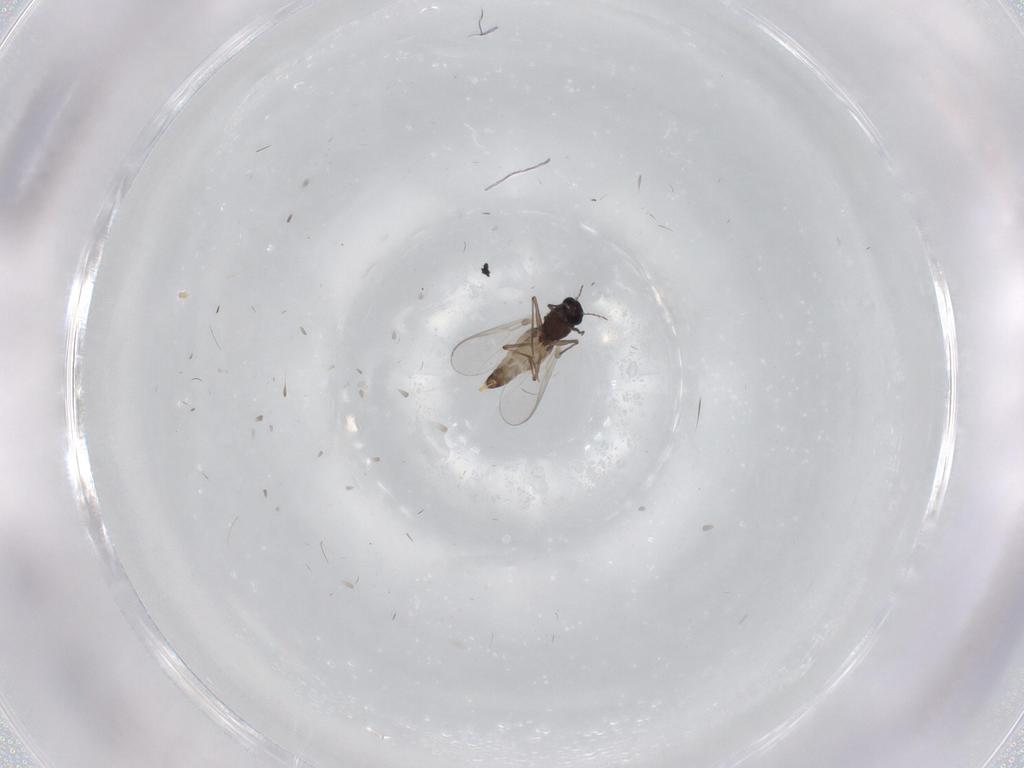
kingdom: Animalia
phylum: Arthropoda
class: Insecta
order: Diptera
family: Chironomidae
